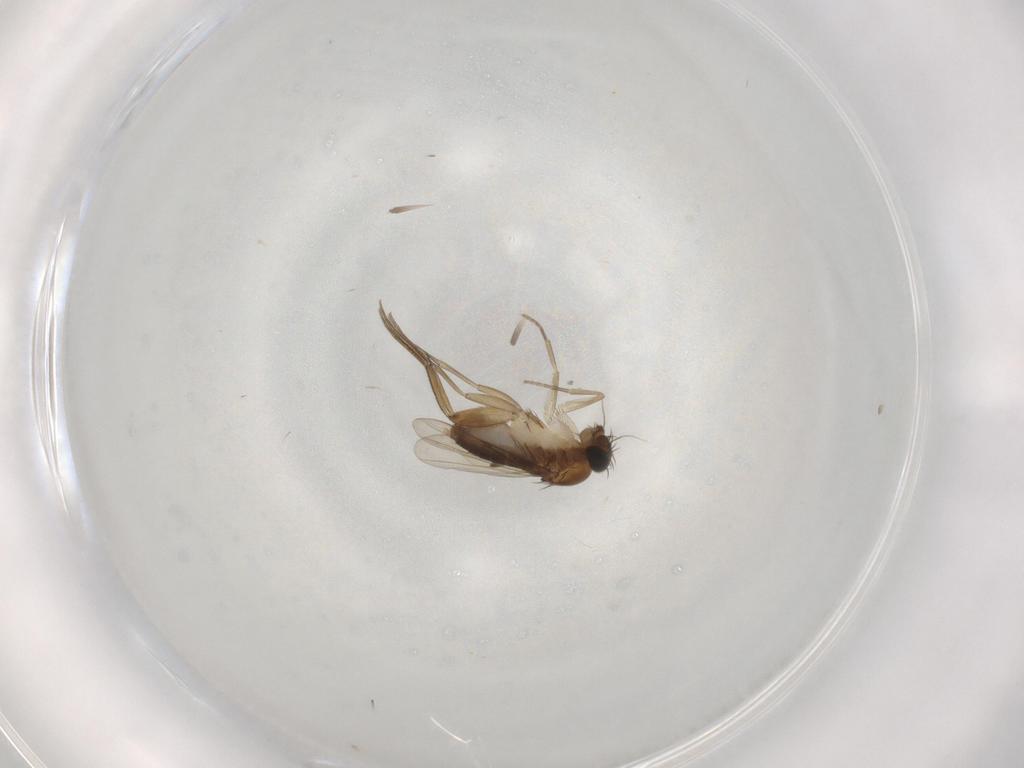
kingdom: Animalia
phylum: Arthropoda
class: Insecta
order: Diptera
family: Phoridae
